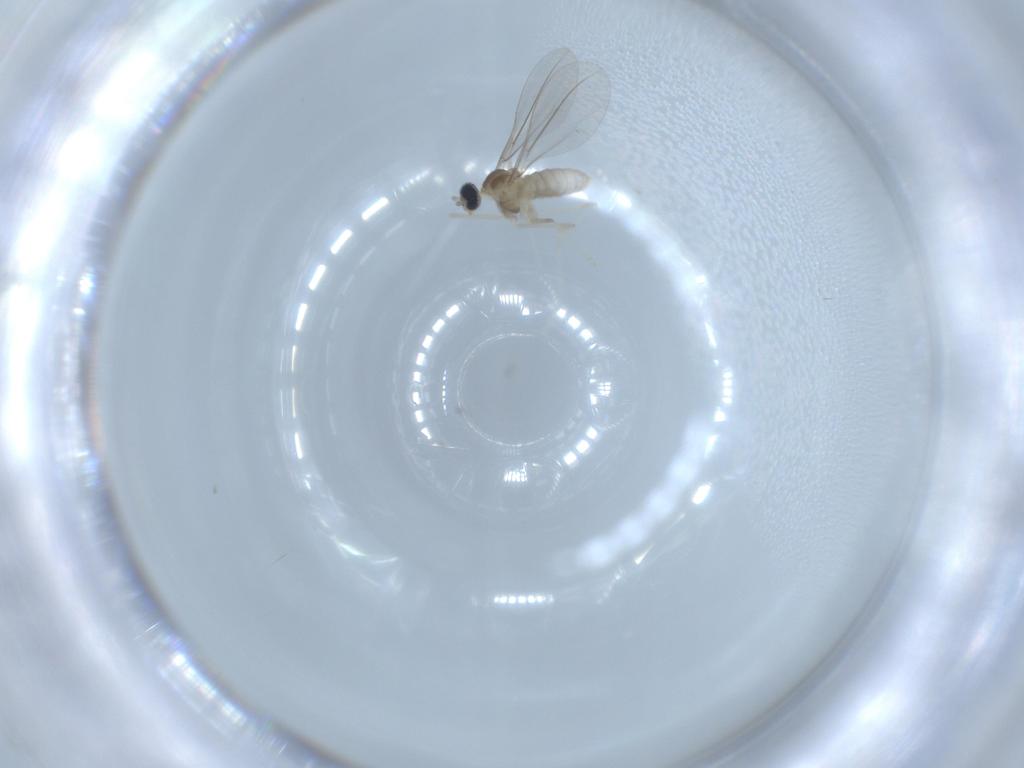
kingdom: Animalia
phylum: Arthropoda
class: Insecta
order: Diptera
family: Cecidomyiidae
